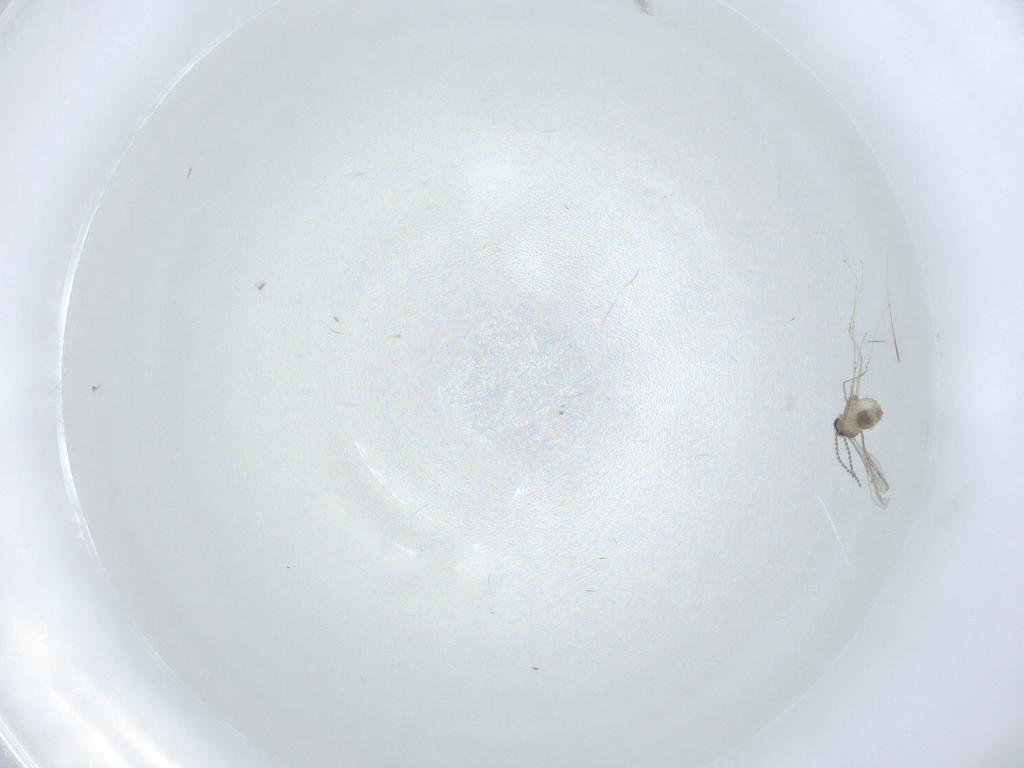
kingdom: Animalia
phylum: Arthropoda
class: Insecta
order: Diptera
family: Cecidomyiidae
